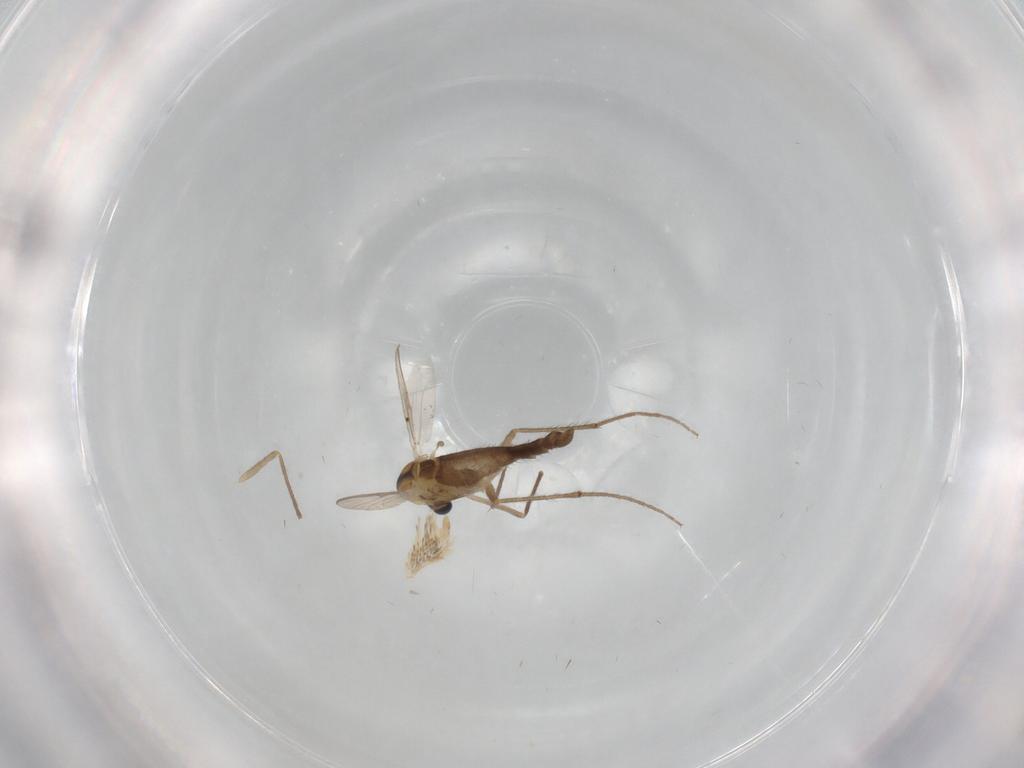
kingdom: Animalia
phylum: Arthropoda
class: Insecta
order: Diptera
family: Chironomidae
